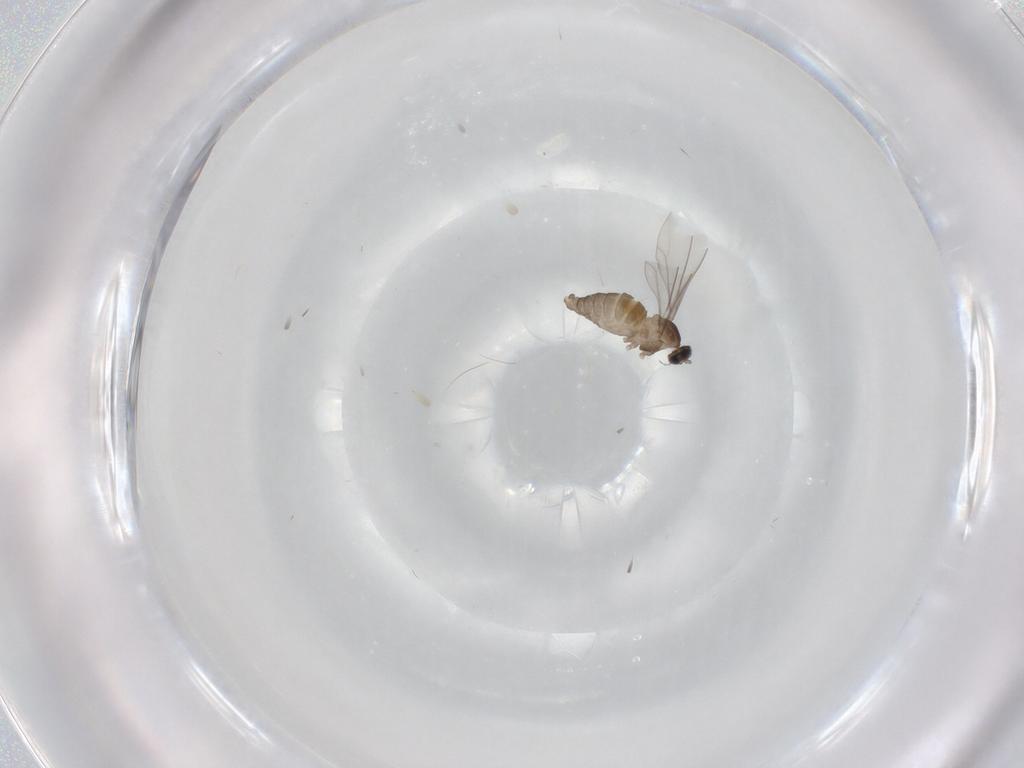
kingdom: Animalia
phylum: Arthropoda
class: Insecta
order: Diptera
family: Cecidomyiidae
